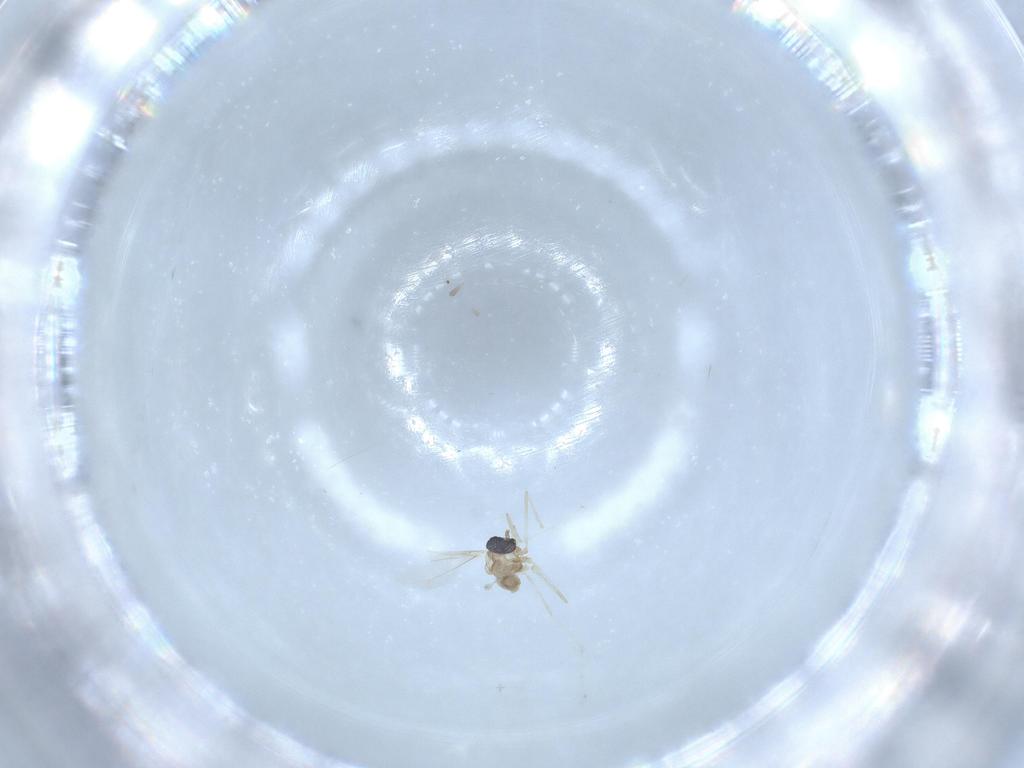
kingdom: Animalia
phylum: Arthropoda
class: Insecta
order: Diptera
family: Cecidomyiidae
